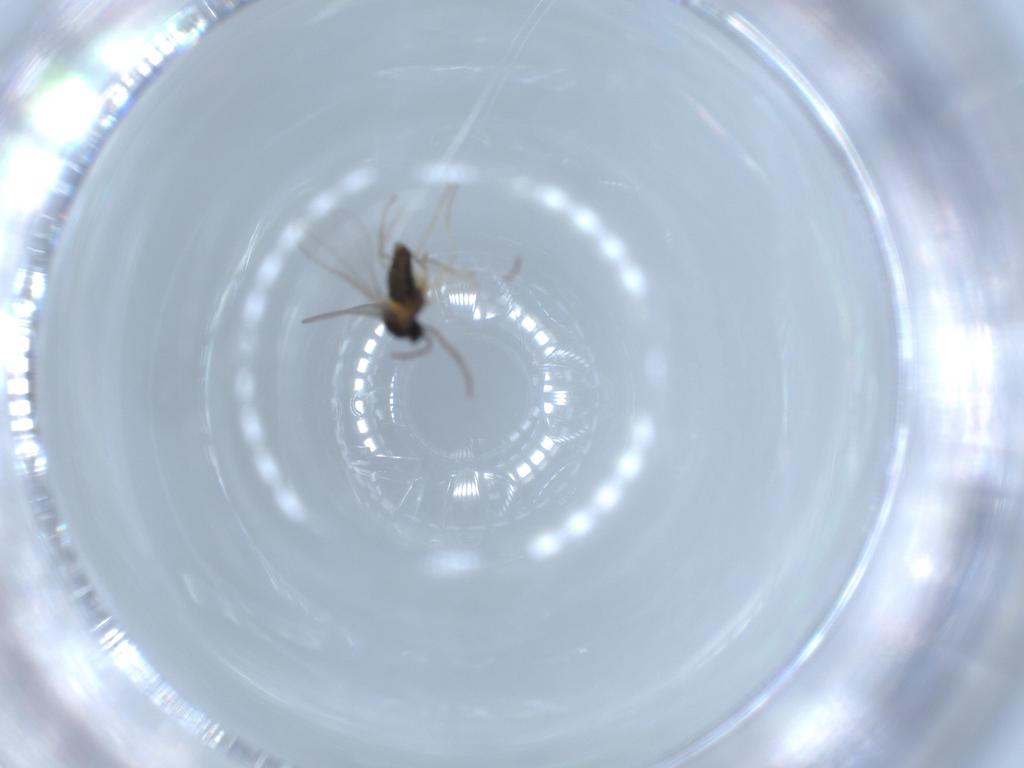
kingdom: Animalia
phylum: Arthropoda
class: Insecta
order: Diptera
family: Cecidomyiidae
